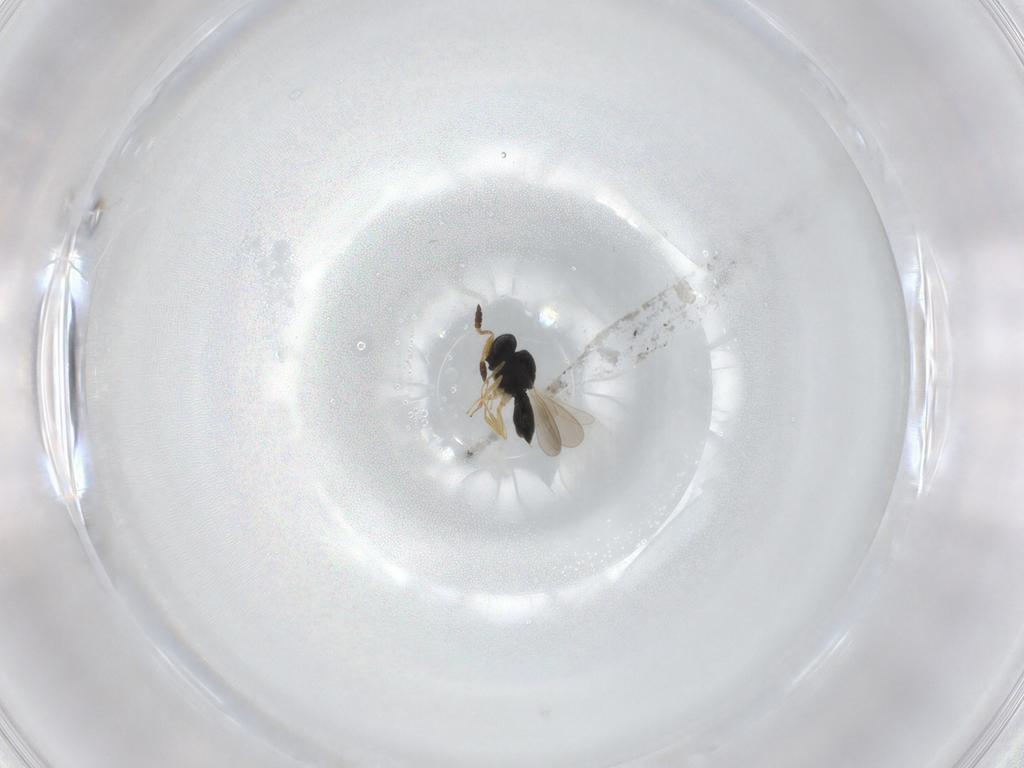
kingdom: Animalia
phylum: Arthropoda
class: Insecta
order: Hymenoptera
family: Scelionidae
